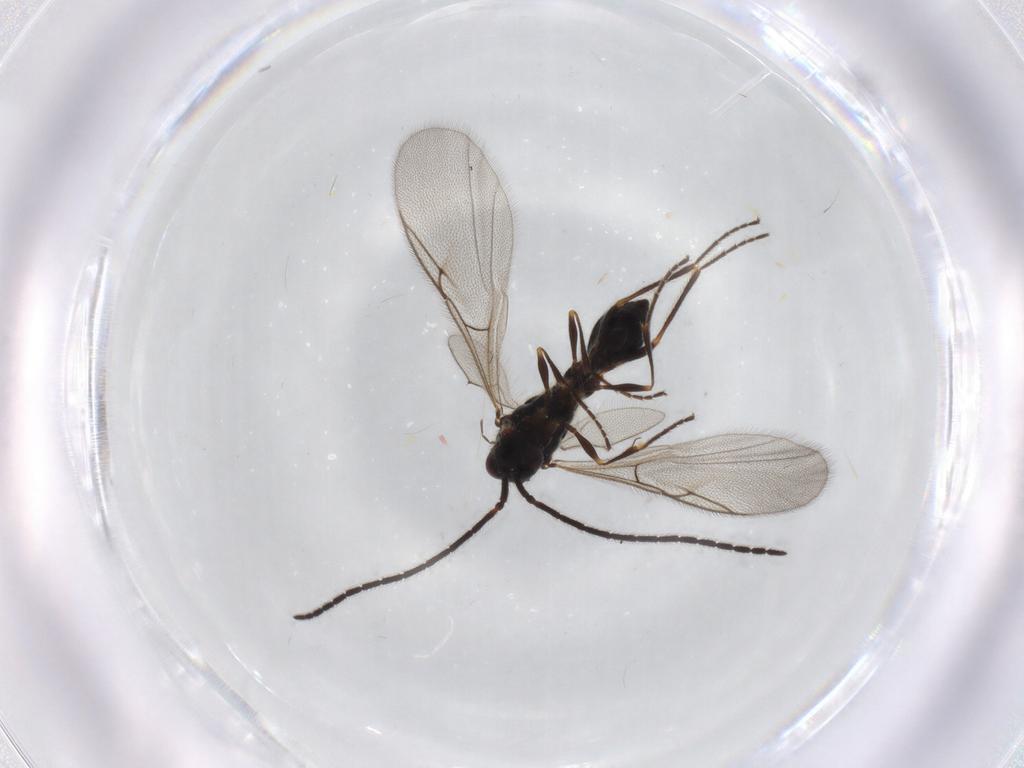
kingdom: Animalia
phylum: Arthropoda
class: Insecta
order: Hymenoptera
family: Diapriidae
